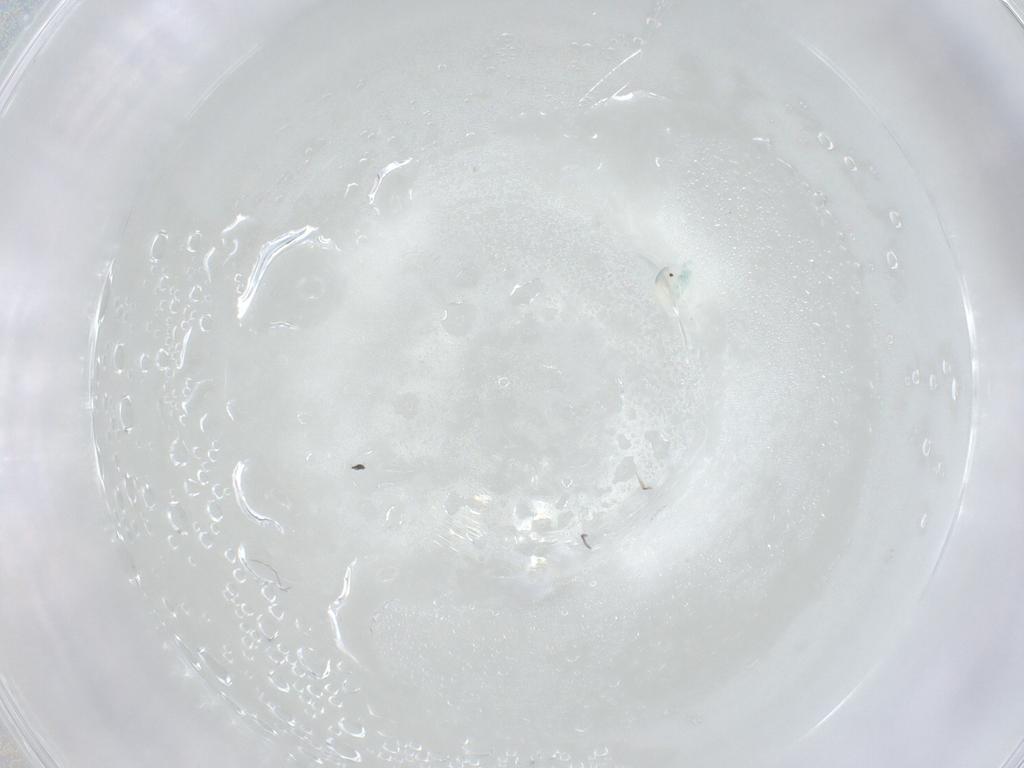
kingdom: Animalia
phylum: Arthropoda
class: Arachnida
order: Trombidiformes
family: Arrenuridae
